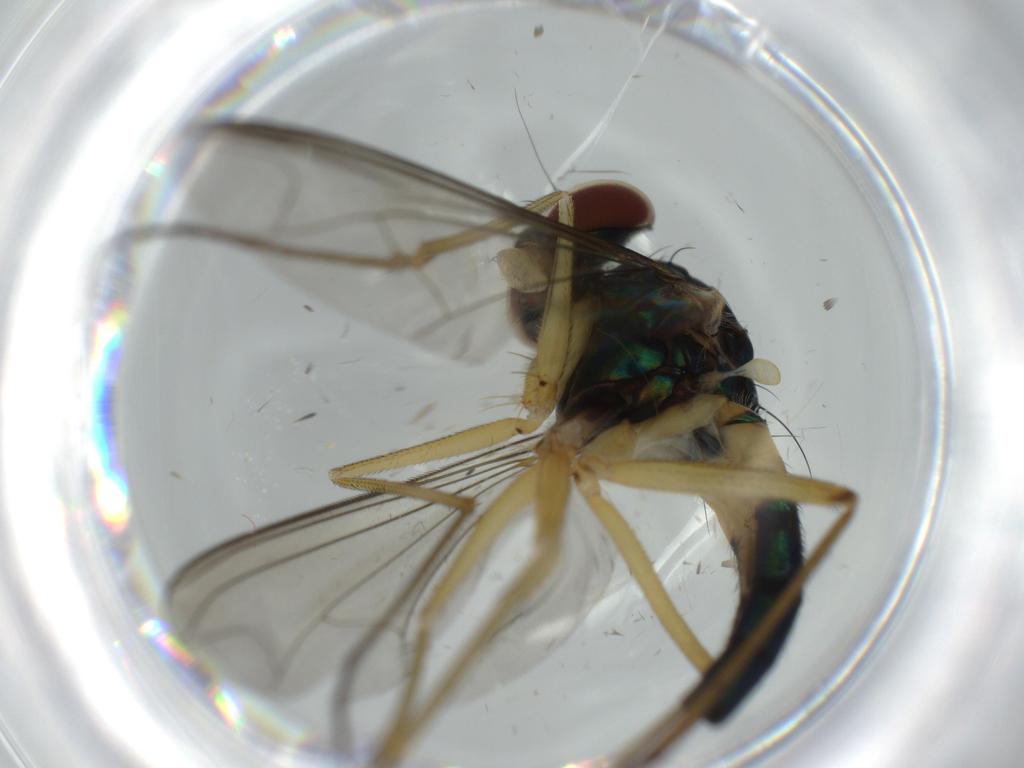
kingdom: Animalia
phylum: Arthropoda
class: Insecta
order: Diptera
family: Dolichopodidae
